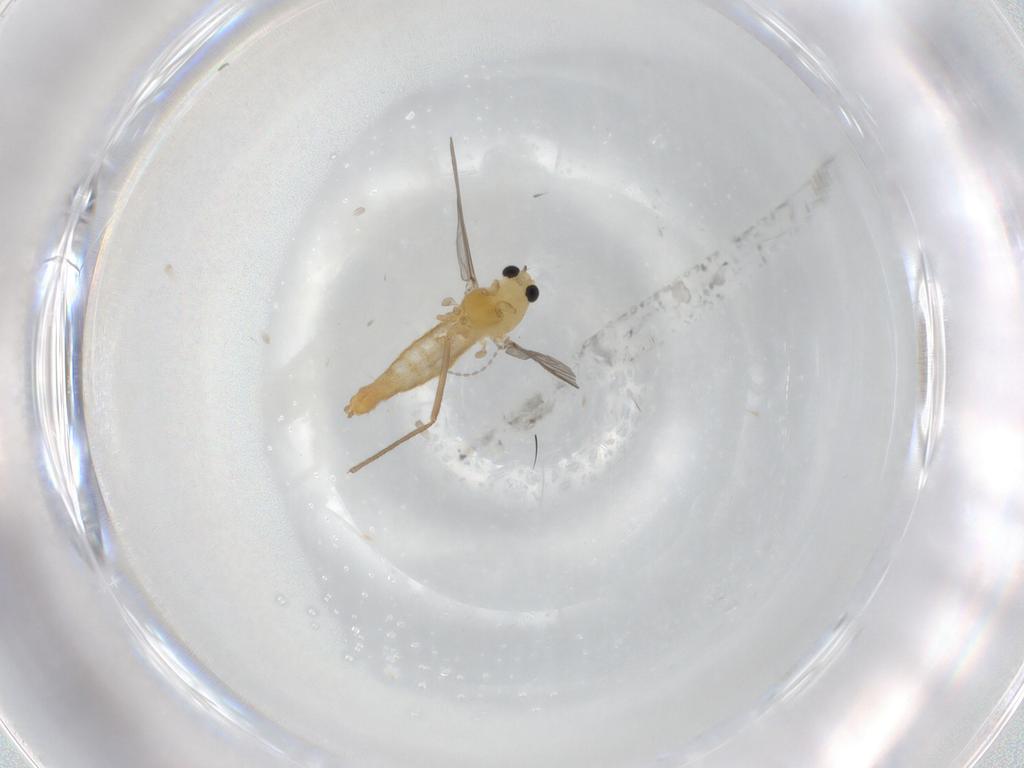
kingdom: Animalia
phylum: Arthropoda
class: Insecta
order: Diptera
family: Chironomidae
